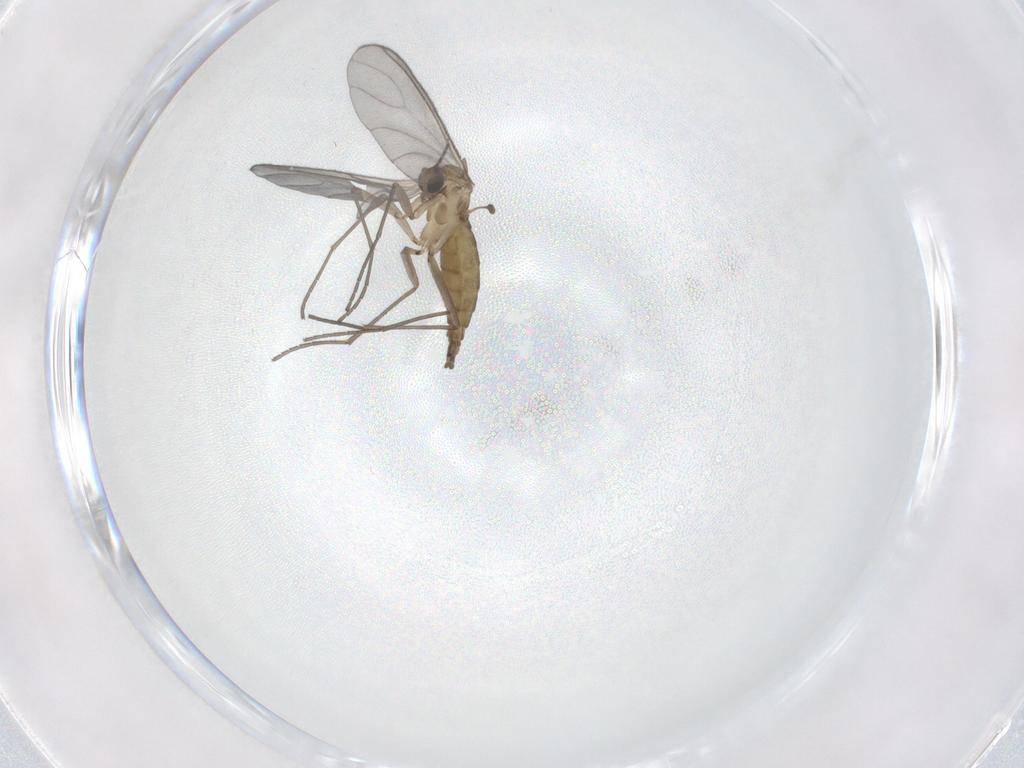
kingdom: Animalia
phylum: Arthropoda
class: Insecta
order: Diptera
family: Sciaridae
